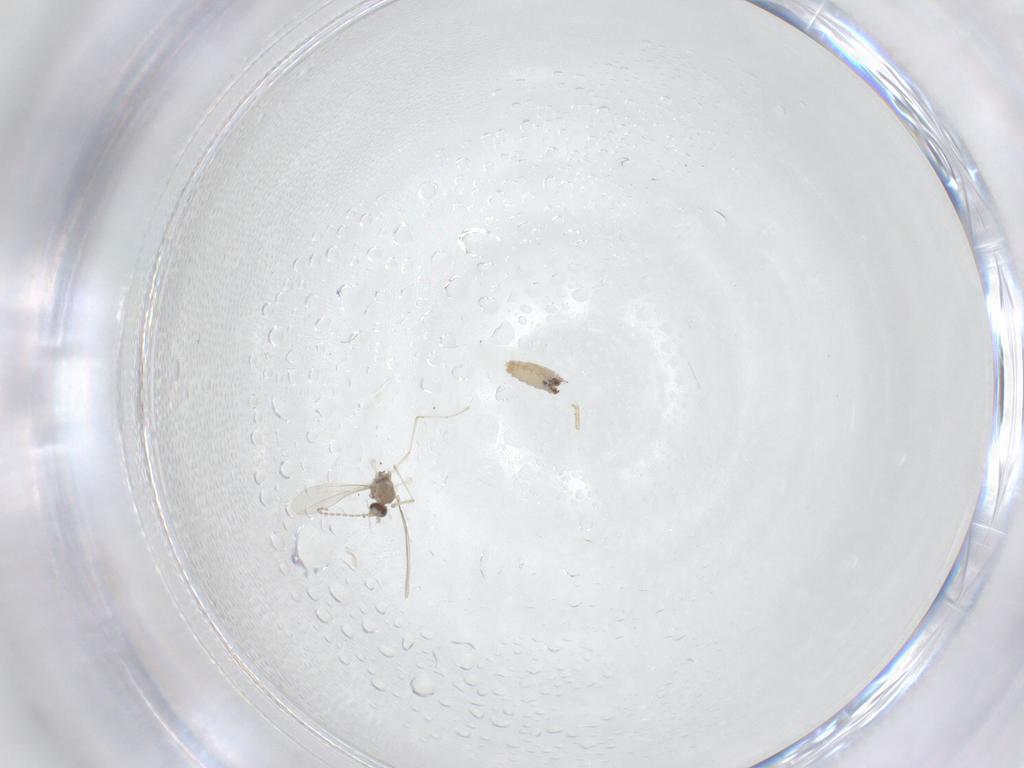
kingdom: Animalia
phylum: Arthropoda
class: Insecta
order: Diptera
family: Cecidomyiidae
